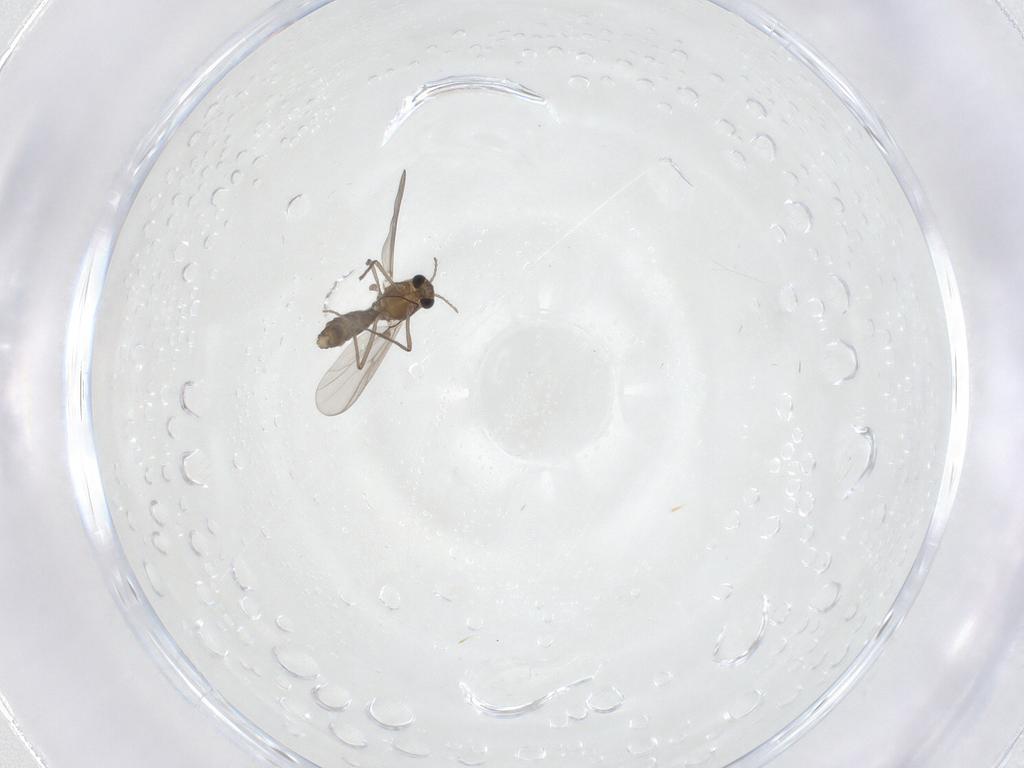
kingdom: Animalia
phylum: Arthropoda
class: Insecta
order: Diptera
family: Chironomidae
